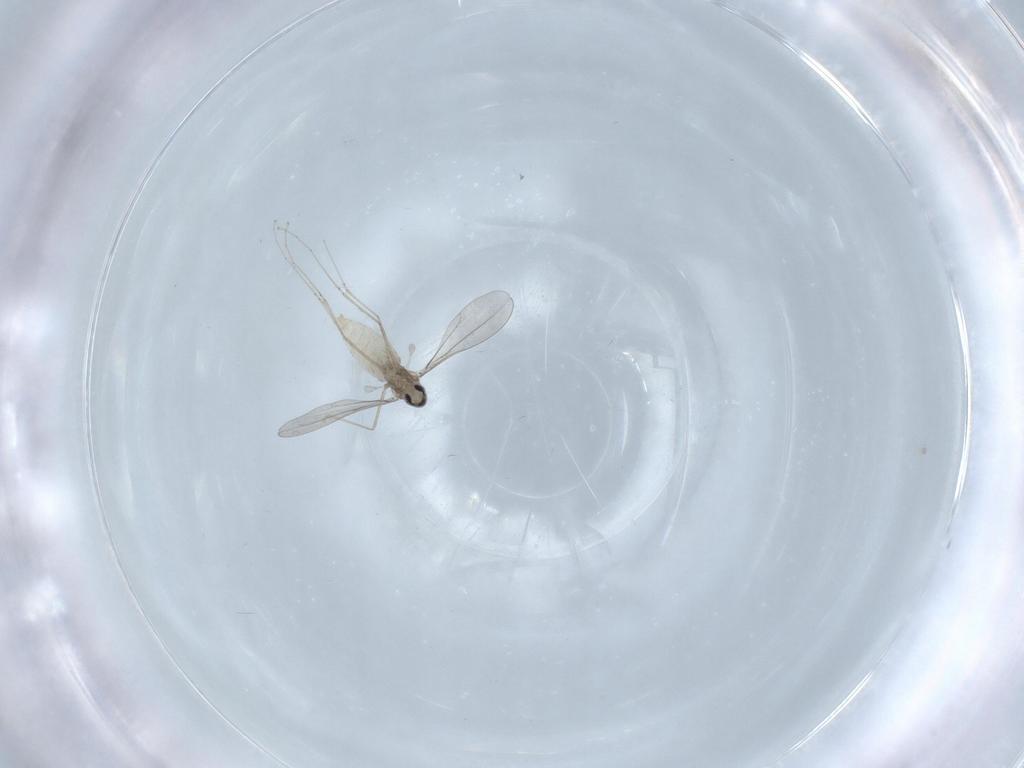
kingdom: Animalia
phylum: Arthropoda
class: Insecta
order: Diptera
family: Cecidomyiidae
